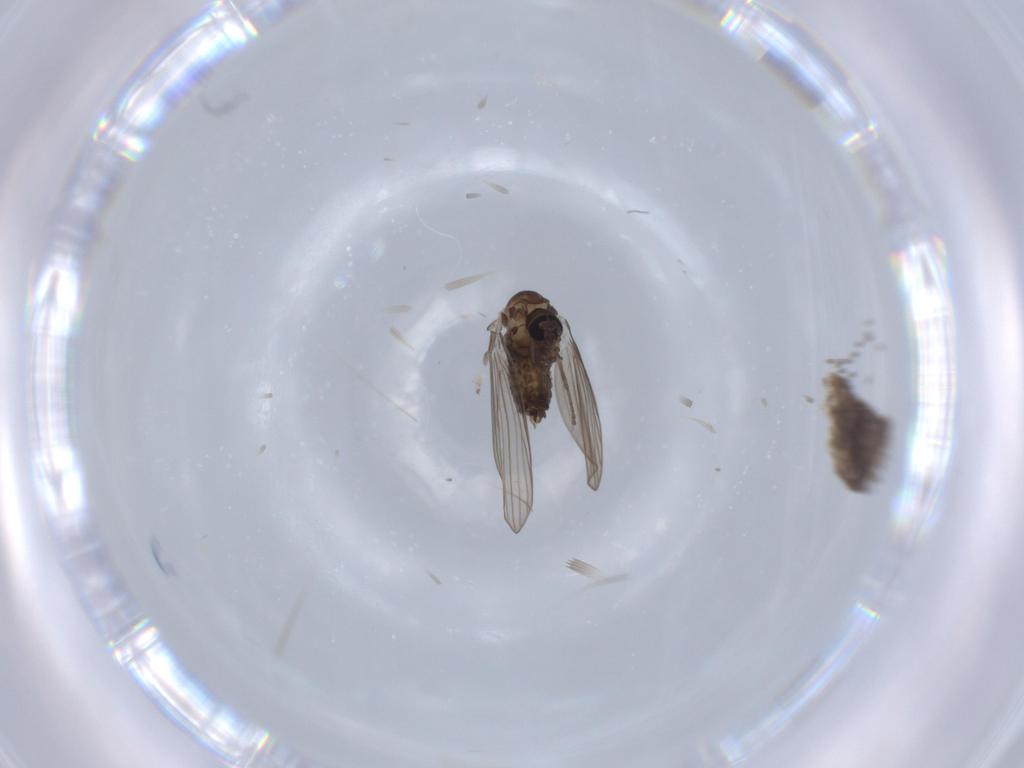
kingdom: Animalia
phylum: Arthropoda
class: Insecta
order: Diptera
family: Psychodidae
